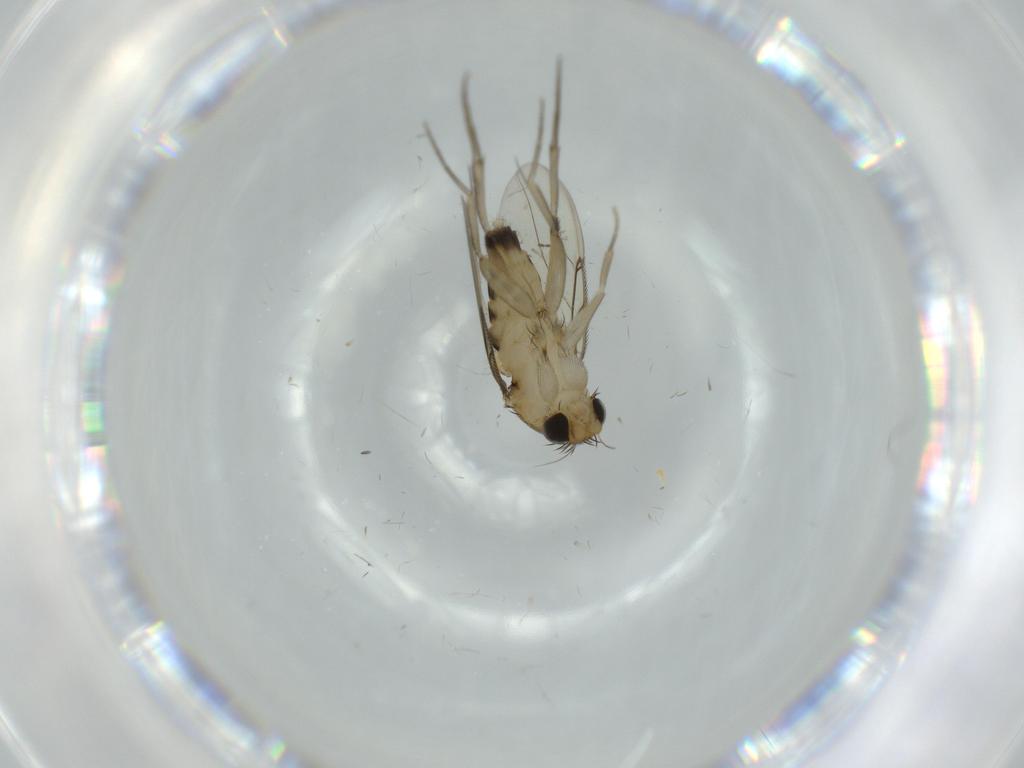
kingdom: Animalia
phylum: Arthropoda
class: Insecta
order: Diptera
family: Phoridae
